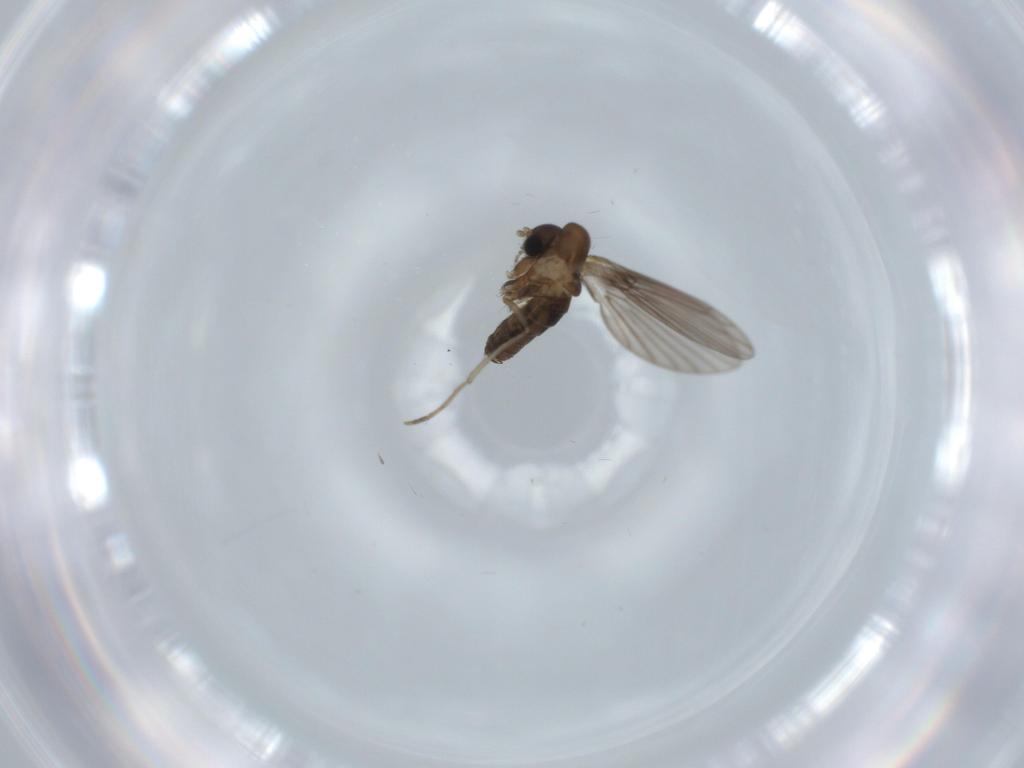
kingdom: Animalia
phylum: Arthropoda
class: Insecta
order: Diptera
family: Psychodidae
